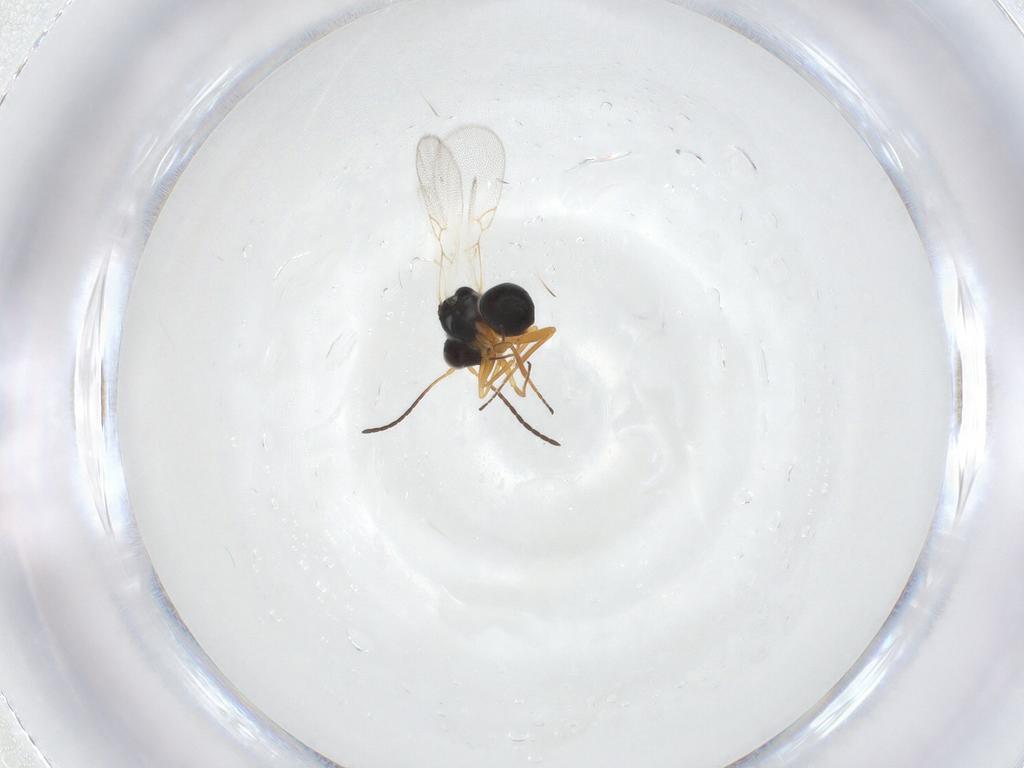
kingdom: Animalia
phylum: Arthropoda
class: Insecta
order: Hymenoptera
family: Figitidae
